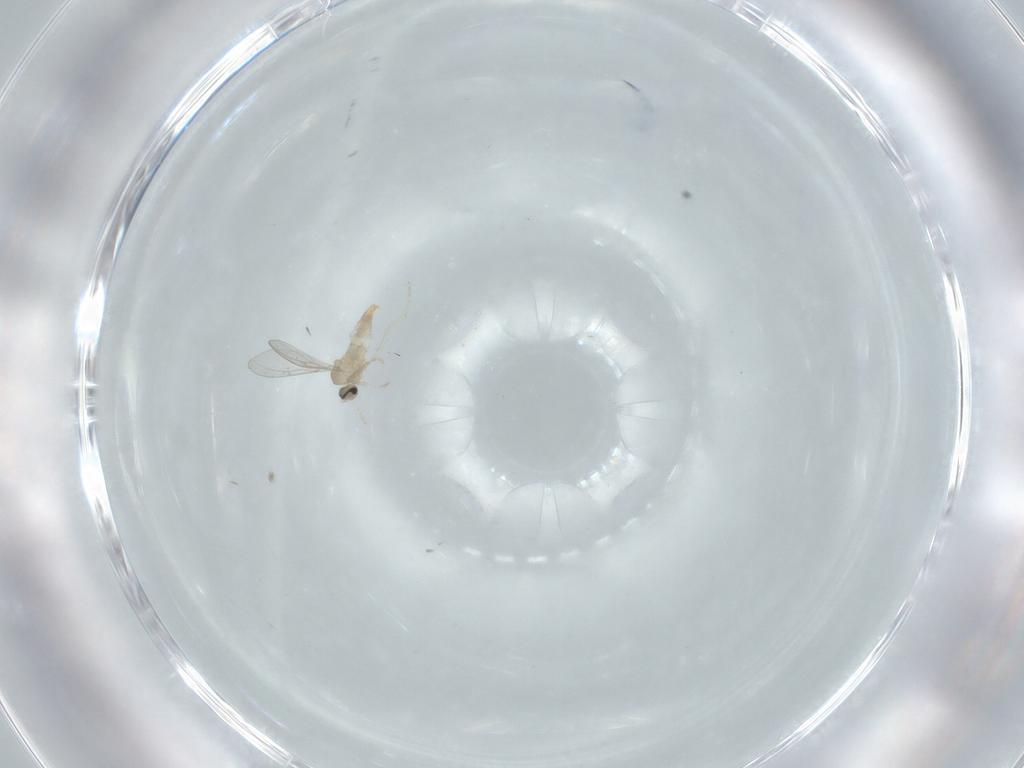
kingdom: Animalia
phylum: Arthropoda
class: Insecta
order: Diptera
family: Cecidomyiidae
